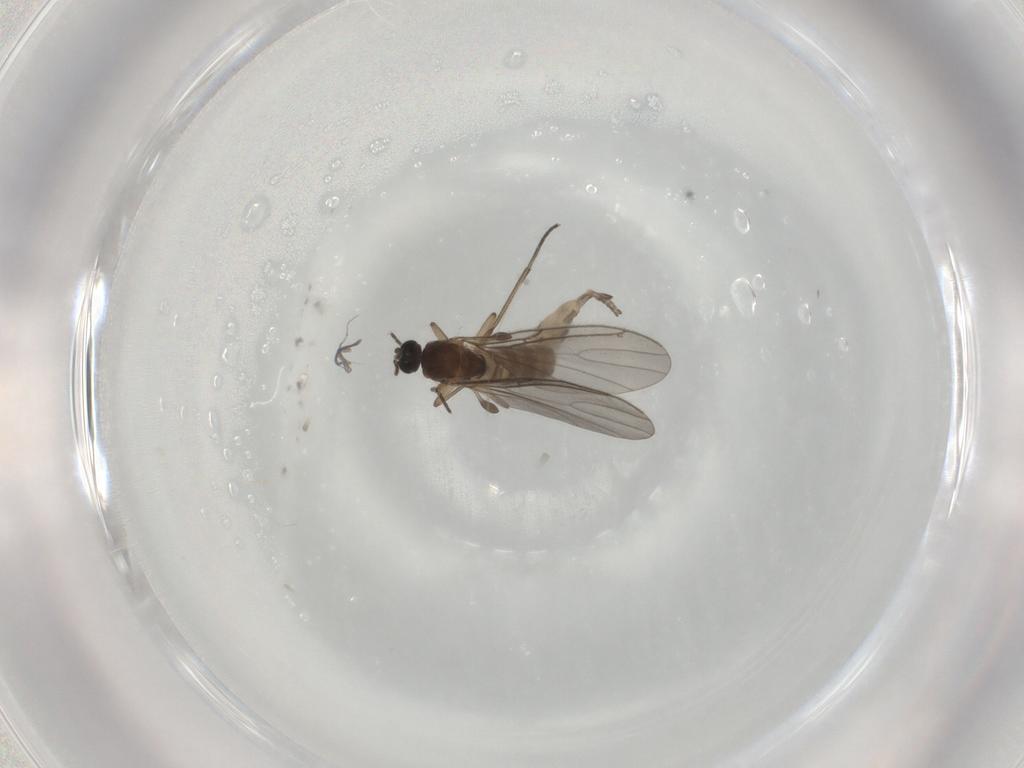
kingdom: Animalia
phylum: Arthropoda
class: Insecta
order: Diptera
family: Sciaridae
